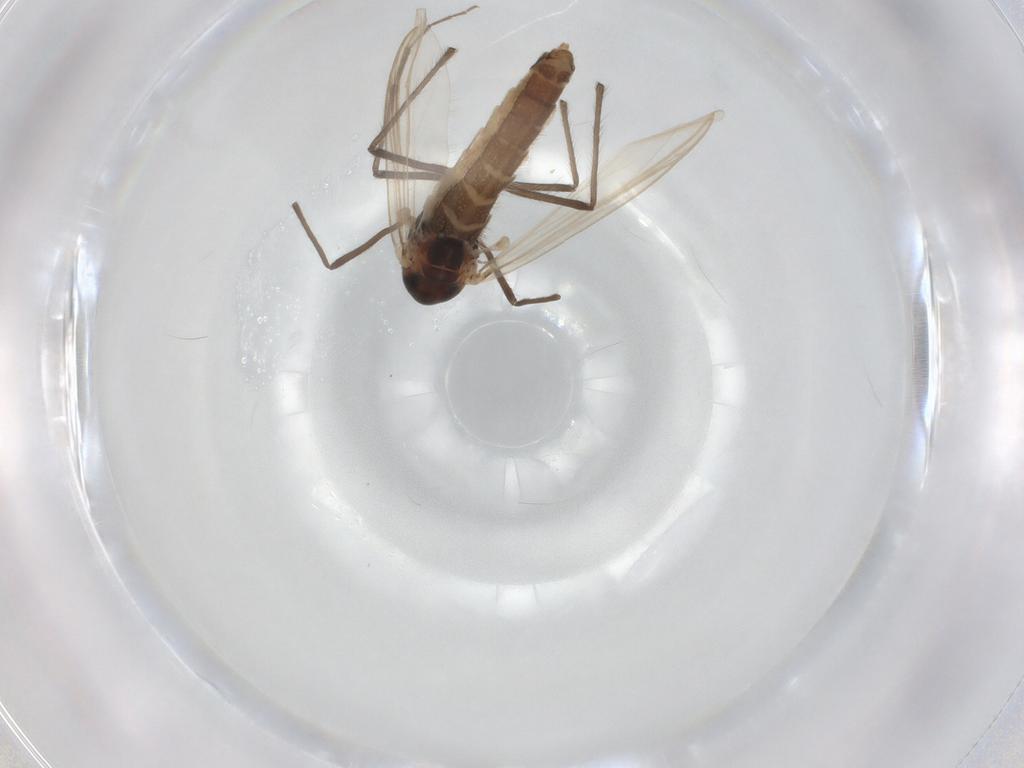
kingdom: Animalia
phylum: Arthropoda
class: Insecta
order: Diptera
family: Chironomidae
